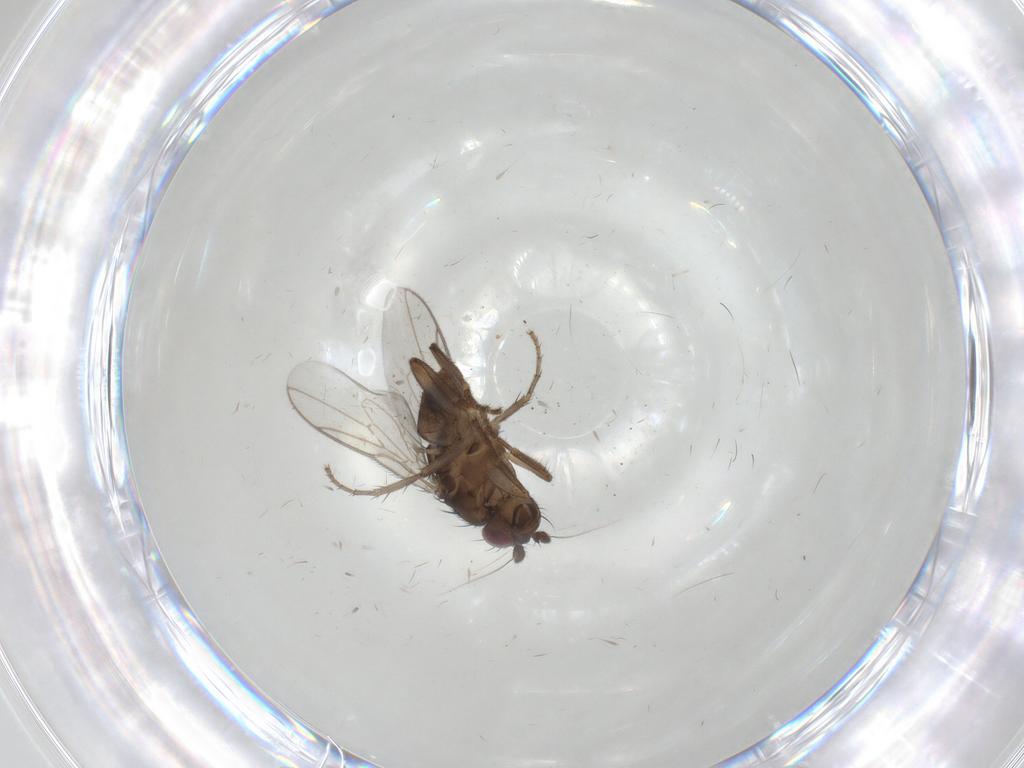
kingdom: Animalia
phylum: Arthropoda
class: Insecta
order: Diptera
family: Sphaeroceridae
